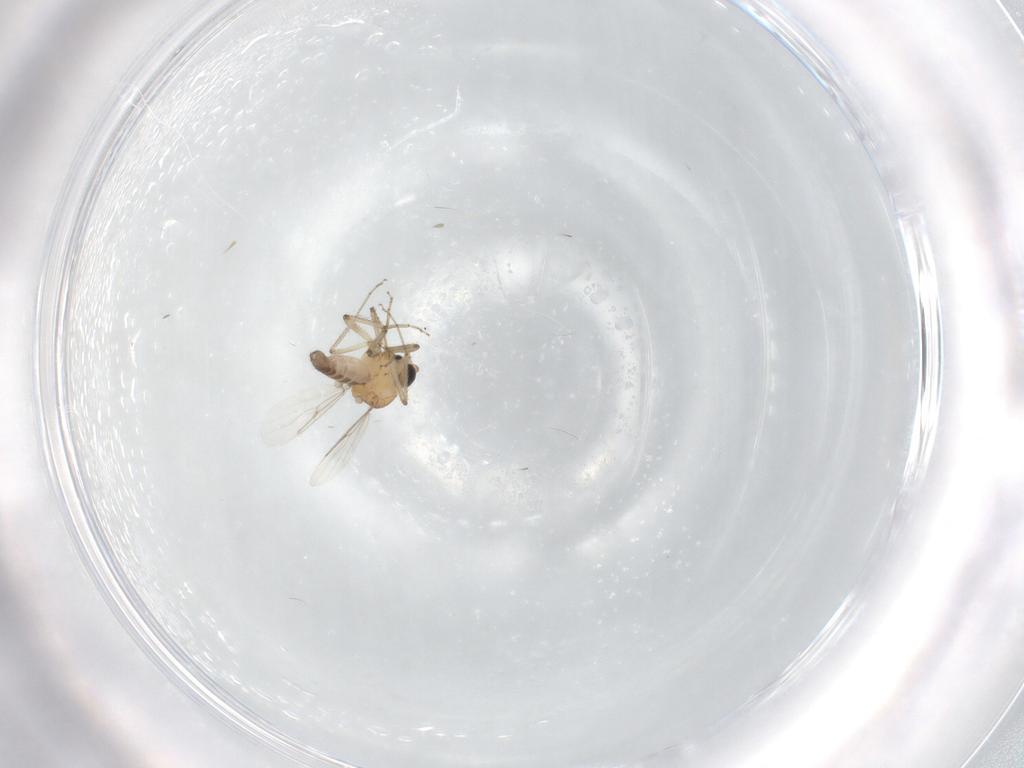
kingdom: Animalia
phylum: Arthropoda
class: Insecta
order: Diptera
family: Ceratopogonidae
